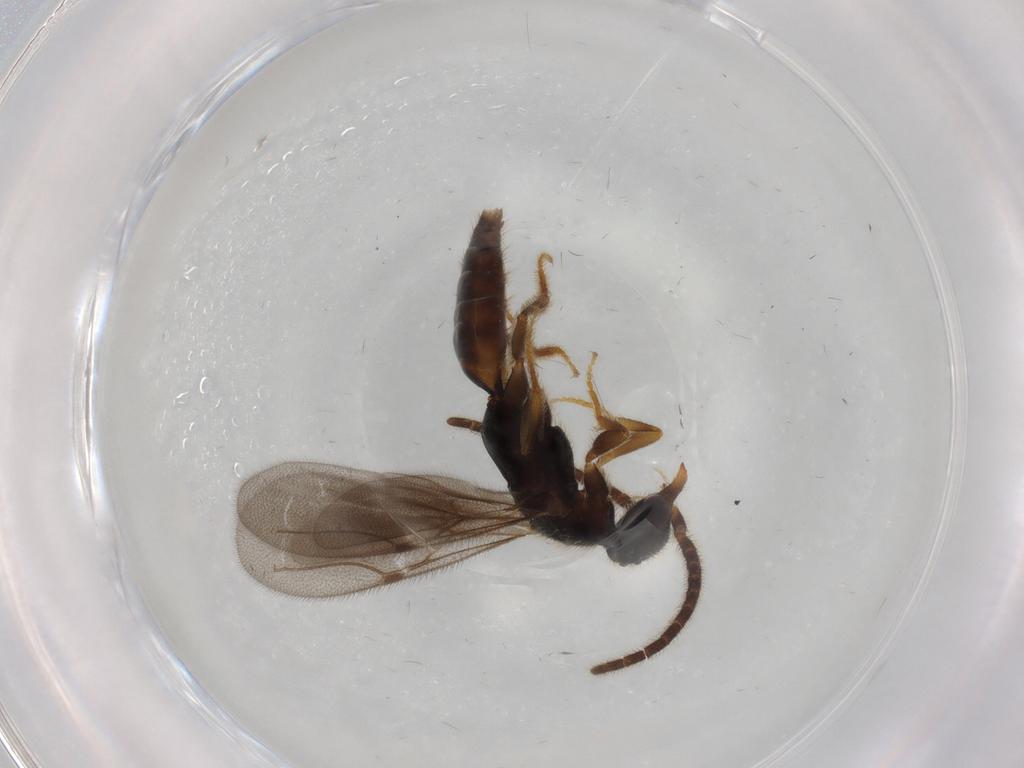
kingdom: Animalia
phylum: Arthropoda
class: Insecta
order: Hymenoptera
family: Bethylidae
